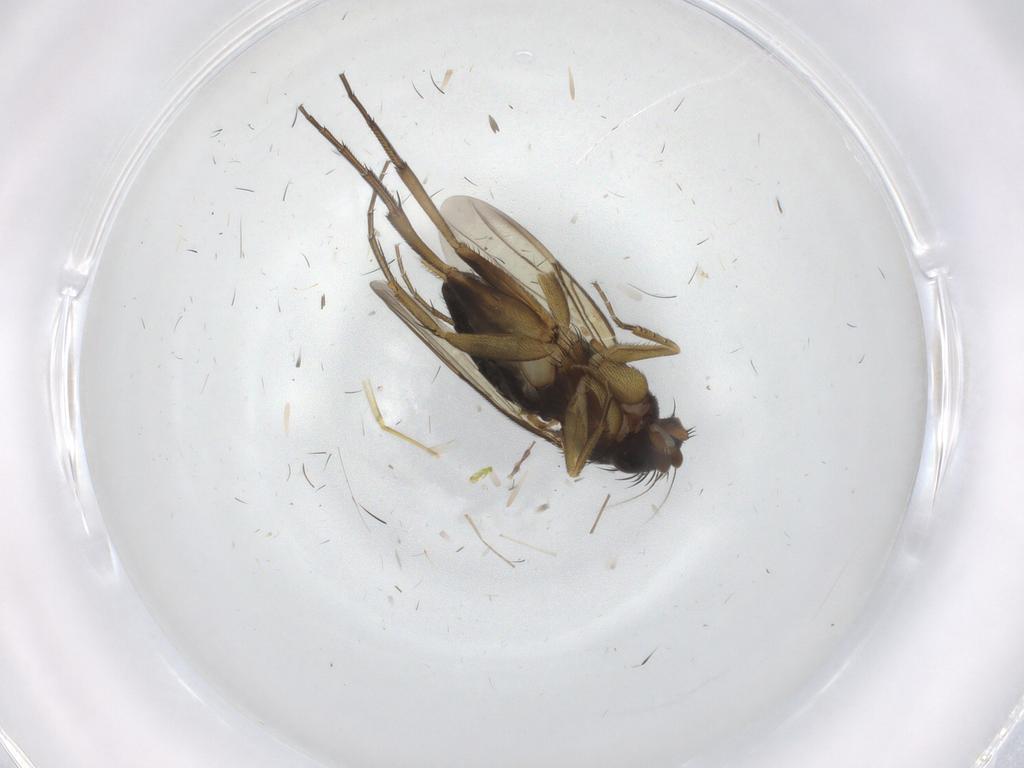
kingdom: Animalia
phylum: Arthropoda
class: Insecta
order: Diptera
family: Phoridae
